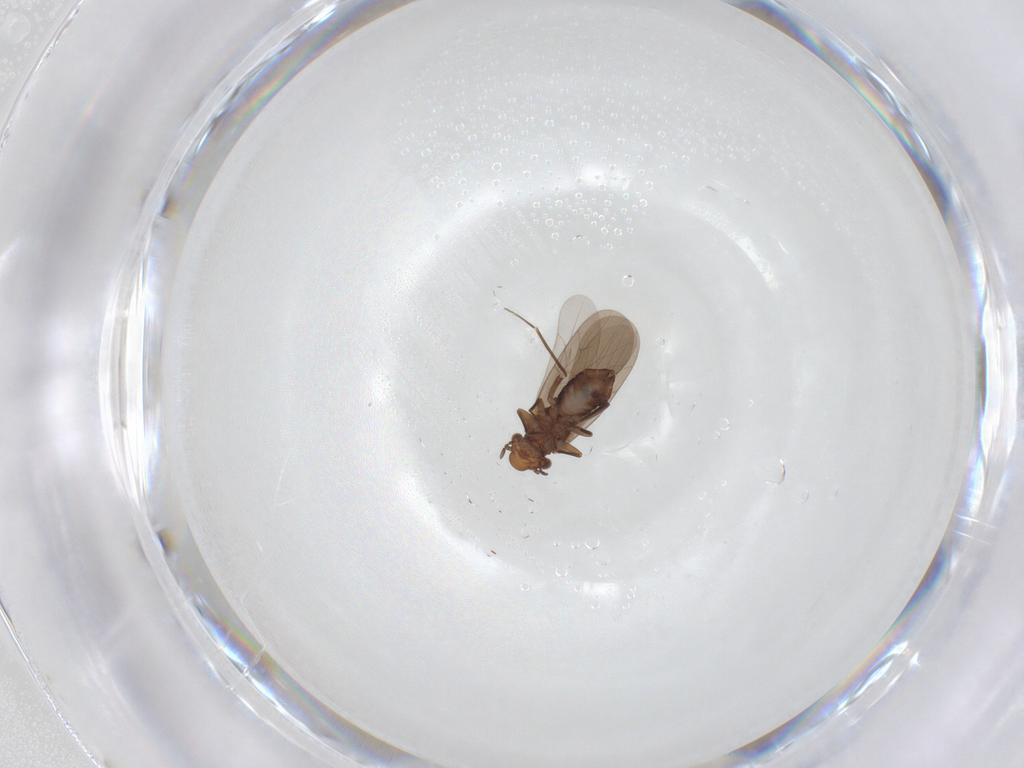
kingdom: Animalia
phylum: Arthropoda
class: Insecta
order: Psocodea
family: Lepidopsocidae
